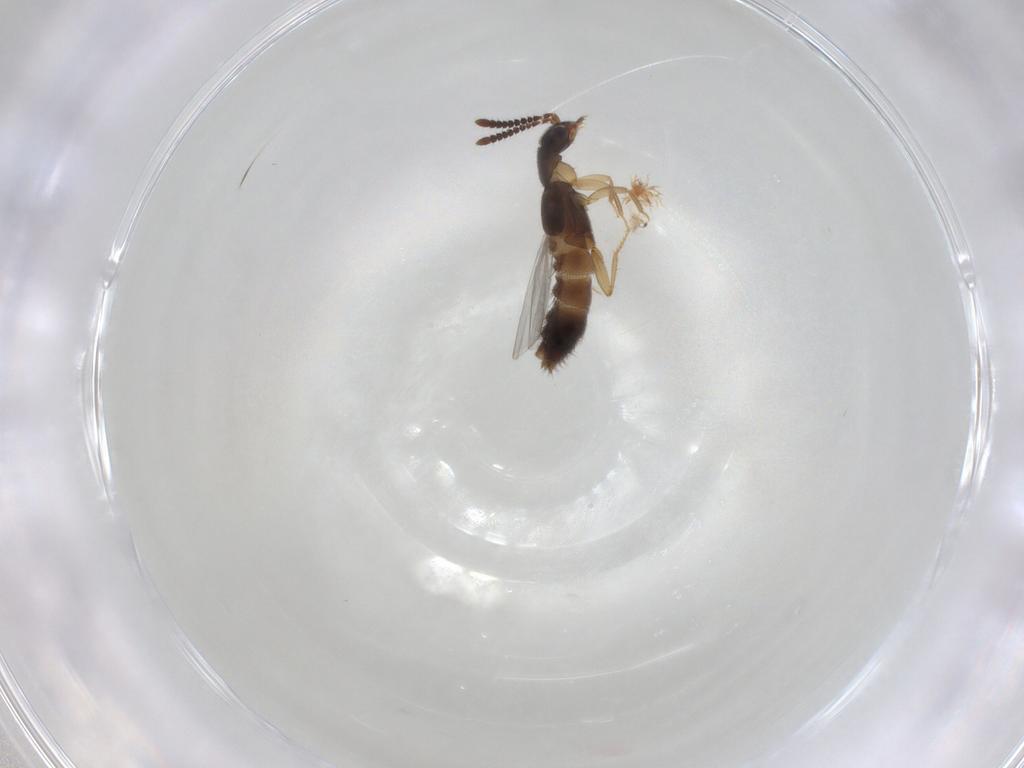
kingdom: Animalia
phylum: Arthropoda
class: Insecta
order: Coleoptera
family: Staphylinidae
